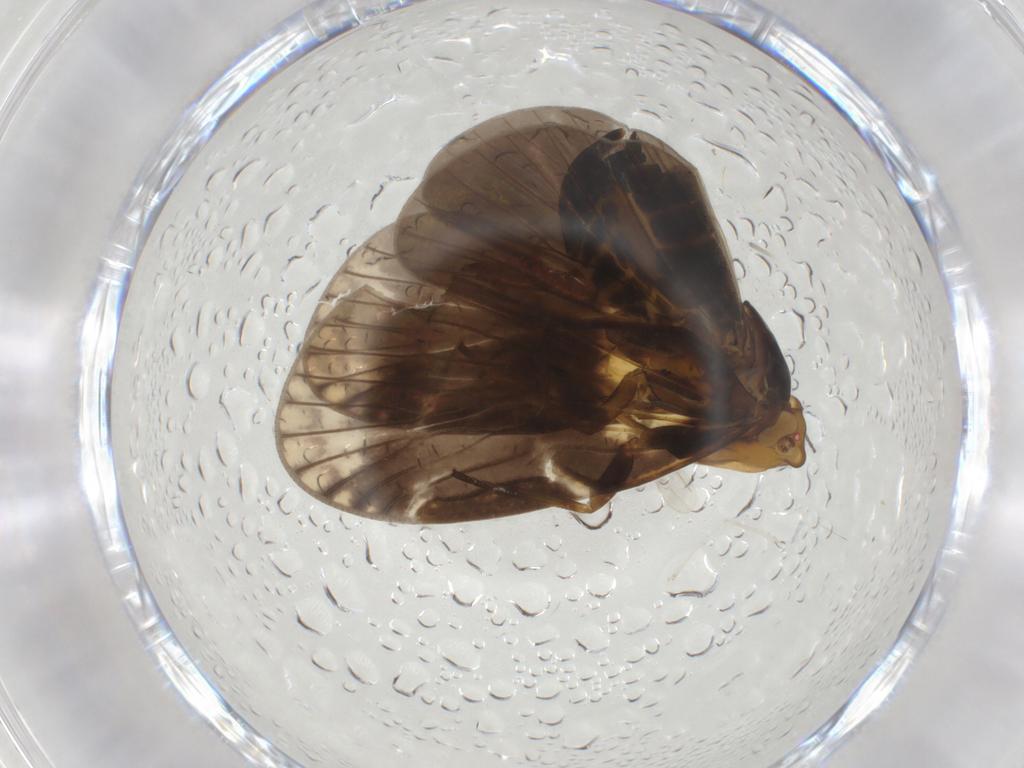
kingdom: Animalia
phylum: Arthropoda
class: Insecta
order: Hemiptera
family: Cixiidae
